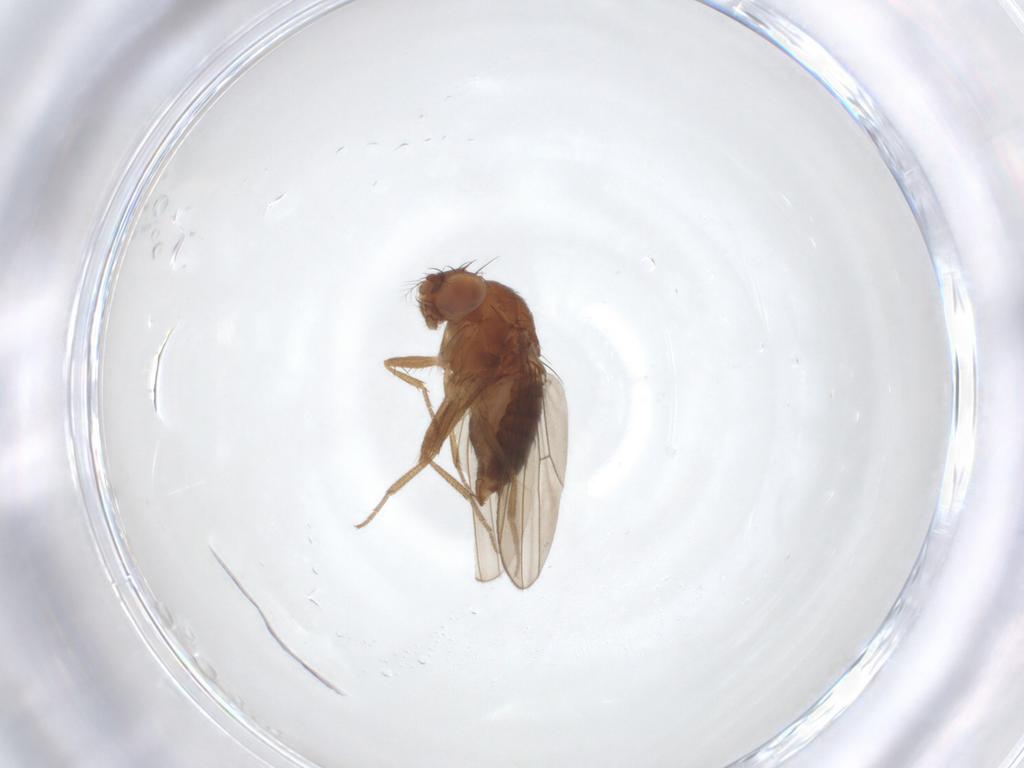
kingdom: Animalia
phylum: Arthropoda
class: Insecta
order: Diptera
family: Drosophilidae
